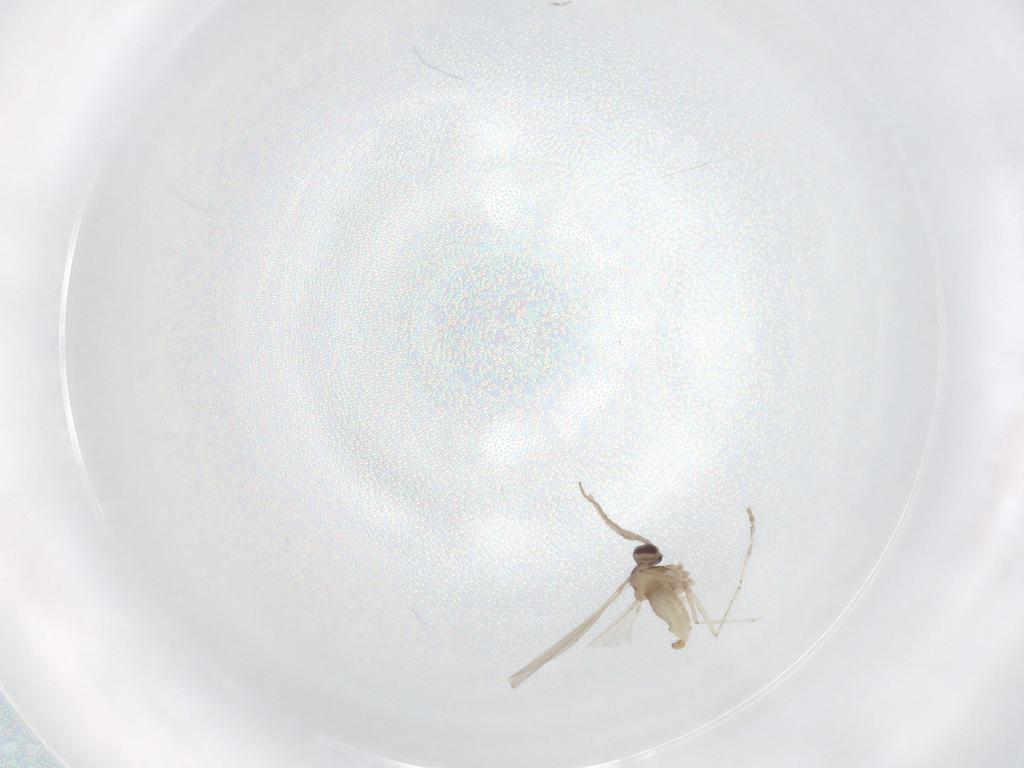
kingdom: Animalia
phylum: Arthropoda
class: Insecta
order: Diptera
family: Cecidomyiidae
